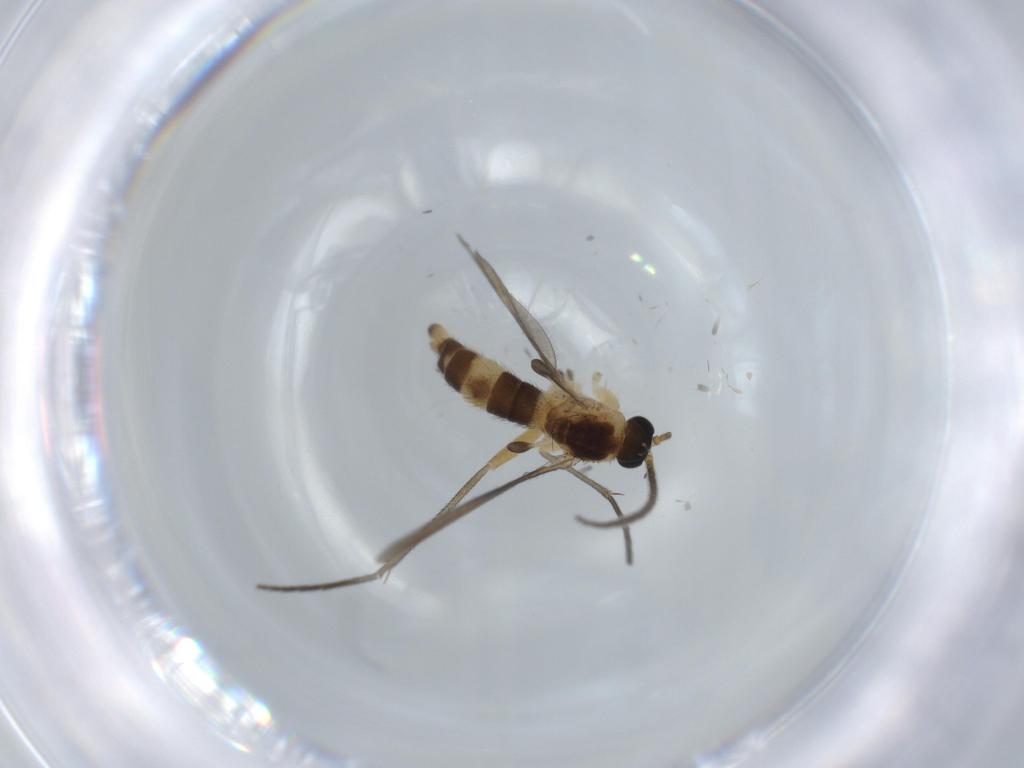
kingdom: Animalia
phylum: Arthropoda
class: Insecta
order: Diptera
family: Sciaridae
